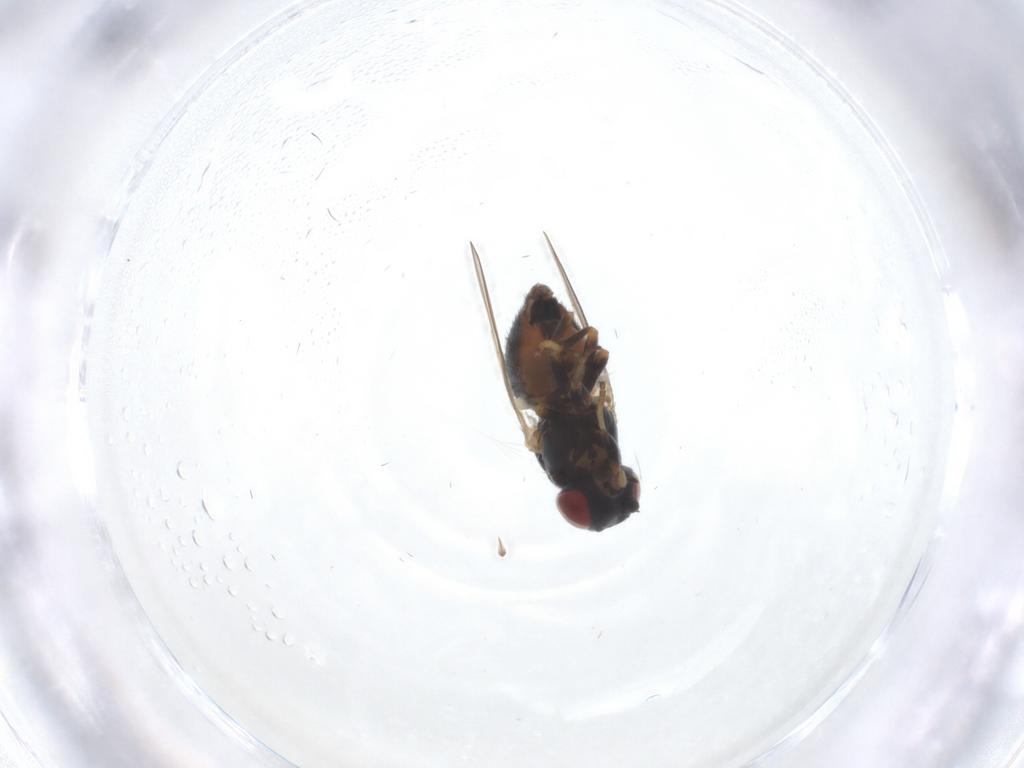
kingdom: Animalia
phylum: Arthropoda
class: Insecta
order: Diptera
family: Chamaemyiidae
